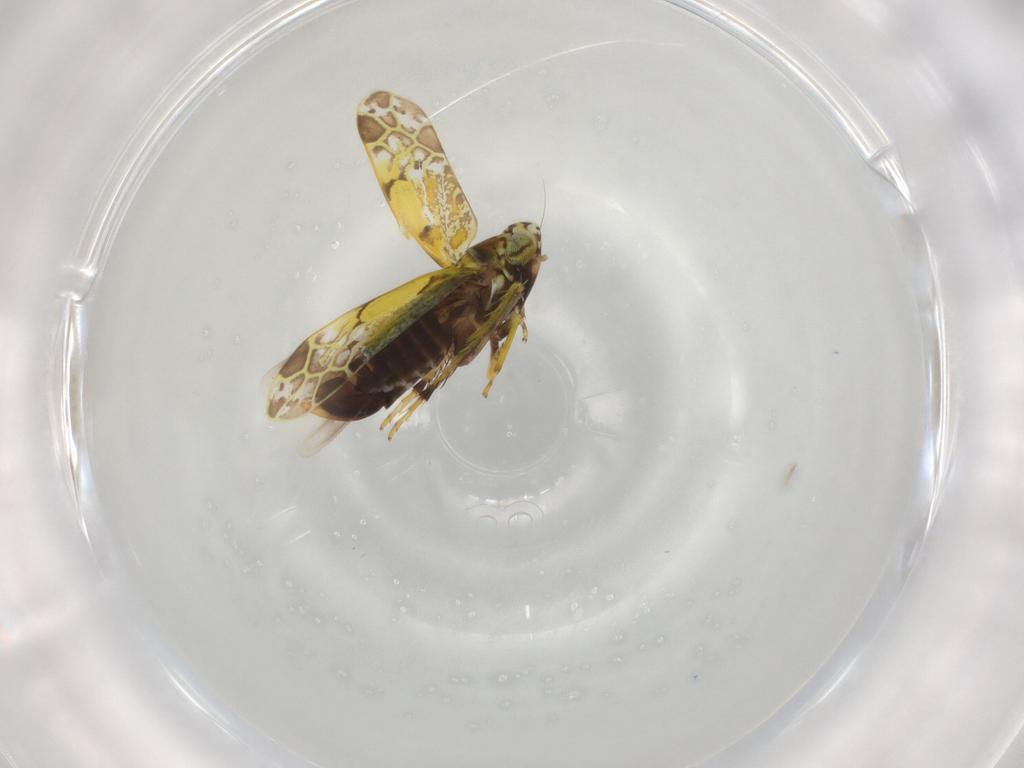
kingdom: Animalia
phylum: Arthropoda
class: Insecta
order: Hemiptera
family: Cicadellidae
